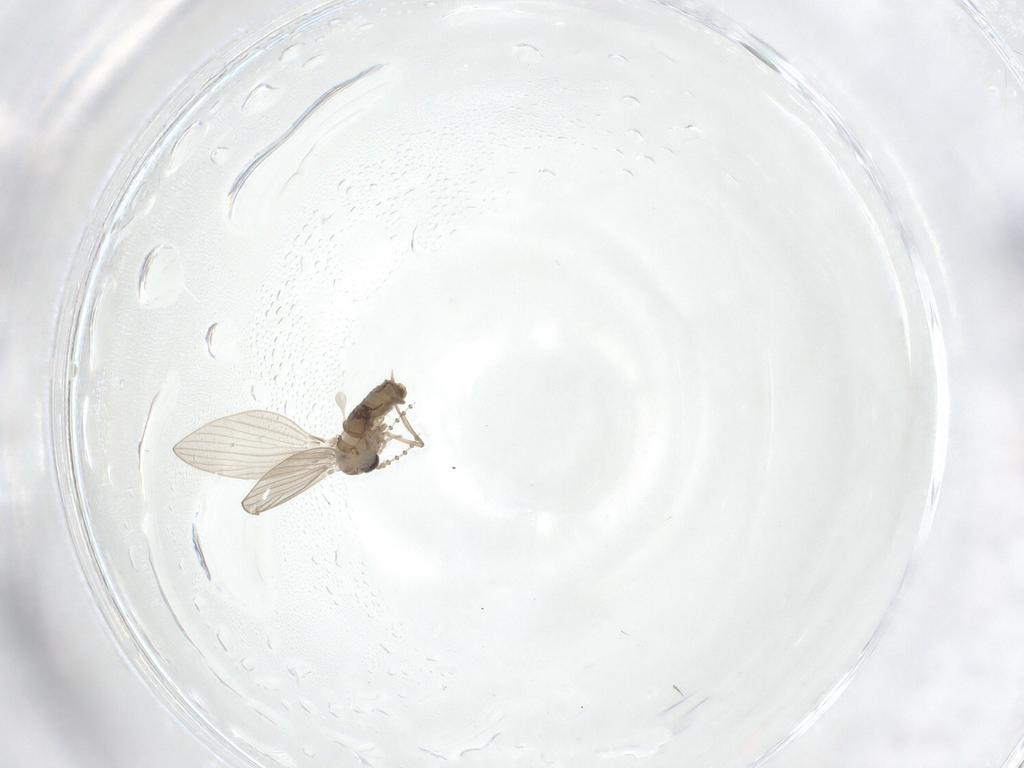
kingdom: Animalia
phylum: Arthropoda
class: Insecta
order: Diptera
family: Psychodidae
